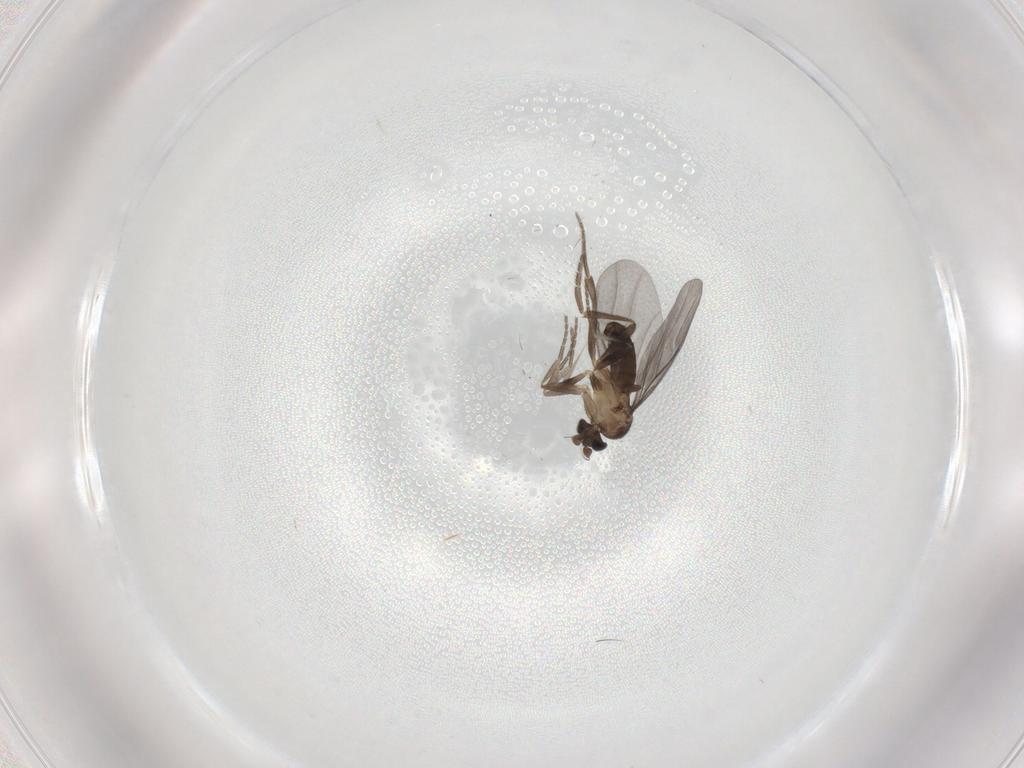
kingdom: Animalia
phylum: Arthropoda
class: Insecta
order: Diptera
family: Phoridae
